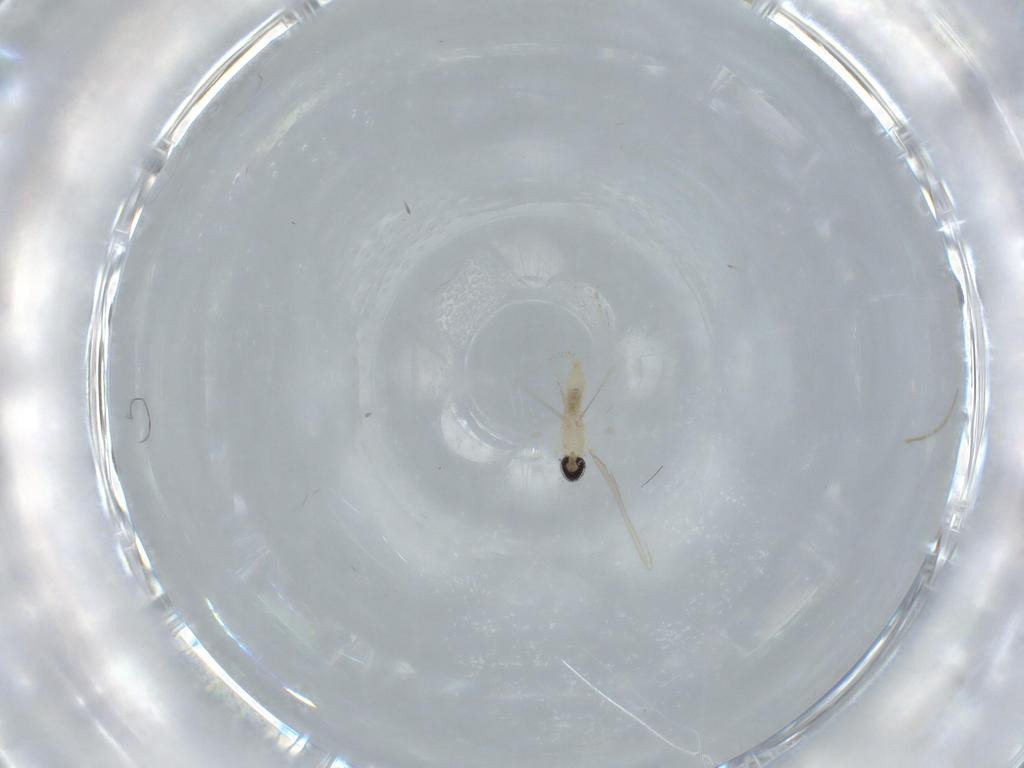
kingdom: Animalia
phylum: Arthropoda
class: Insecta
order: Diptera
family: Cecidomyiidae
